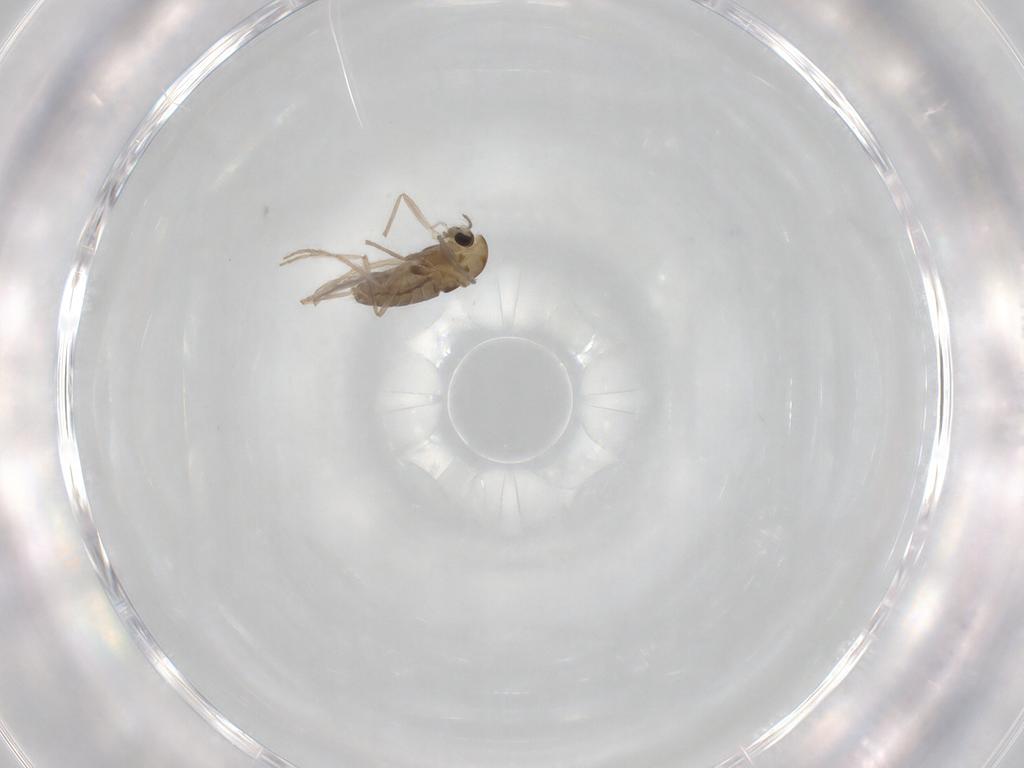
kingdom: Animalia
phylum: Arthropoda
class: Insecta
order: Diptera
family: Chironomidae
